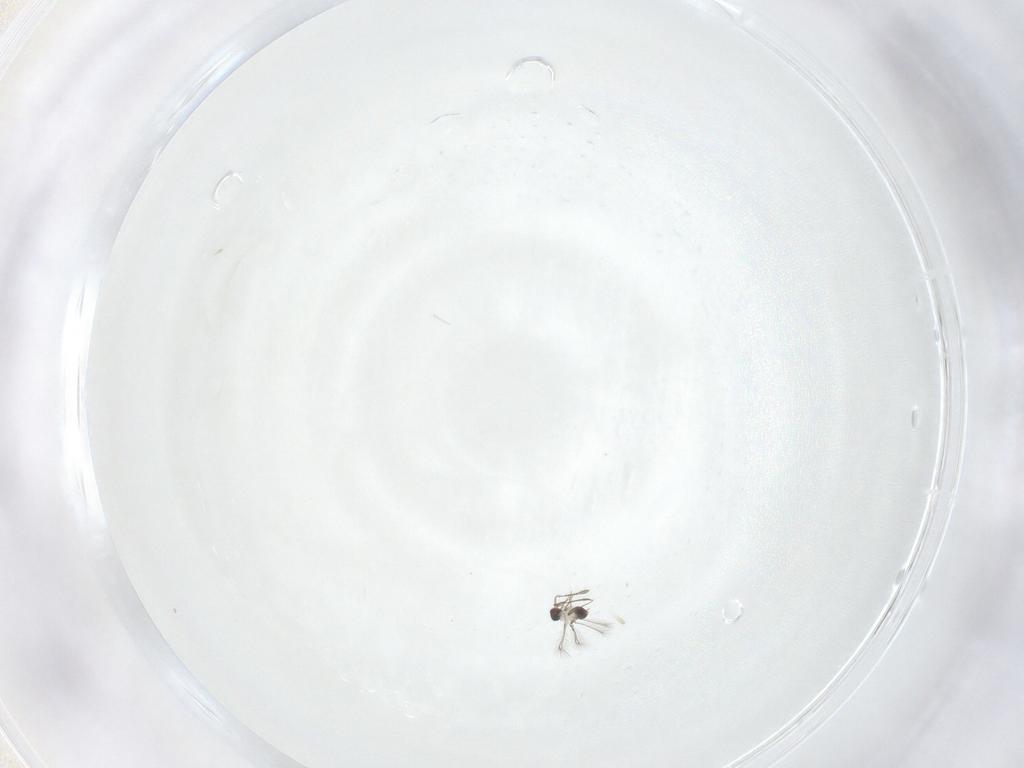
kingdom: Animalia
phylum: Arthropoda
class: Insecta
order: Hymenoptera
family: Mymaridae
